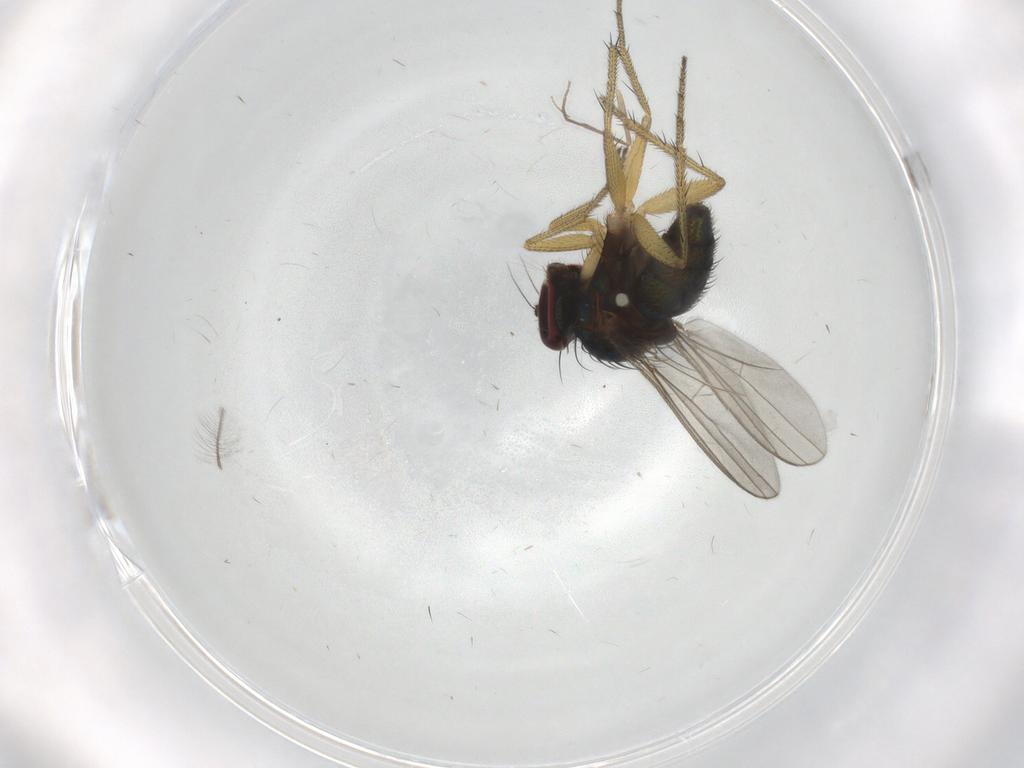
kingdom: Animalia
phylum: Arthropoda
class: Insecta
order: Diptera
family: Dolichopodidae
